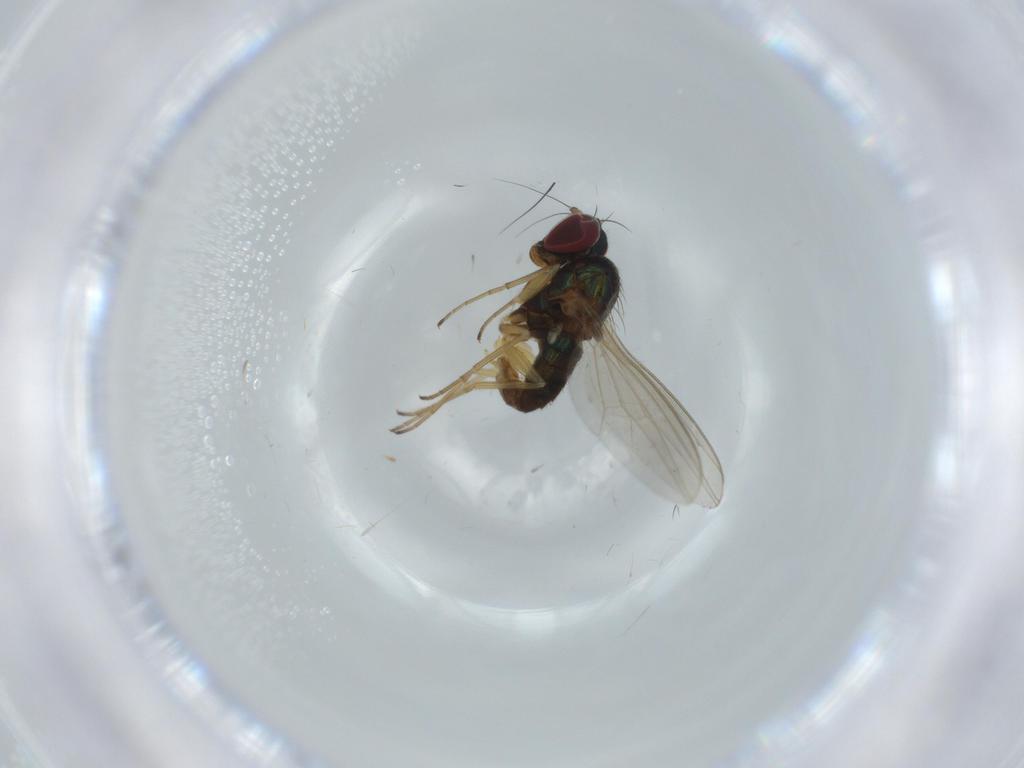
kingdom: Animalia
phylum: Arthropoda
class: Insecta
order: Diptera
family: Dolichopodidae
